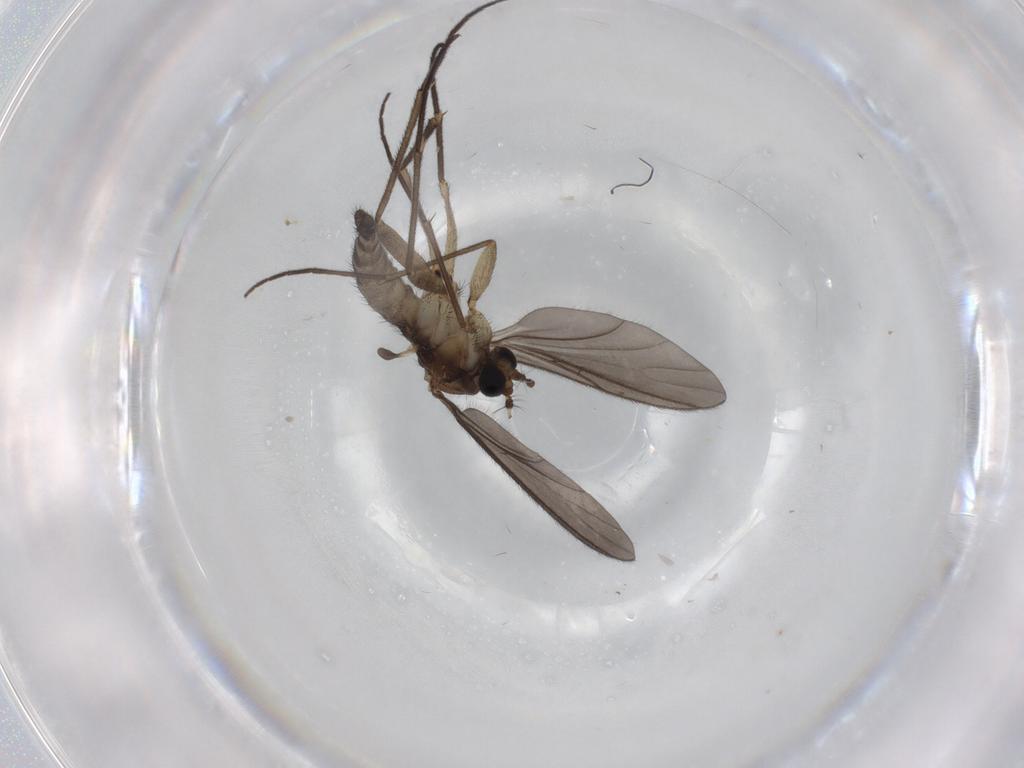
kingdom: Animalia
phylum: Arthropoda
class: Insecta
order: Diptera
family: Sciaridae
